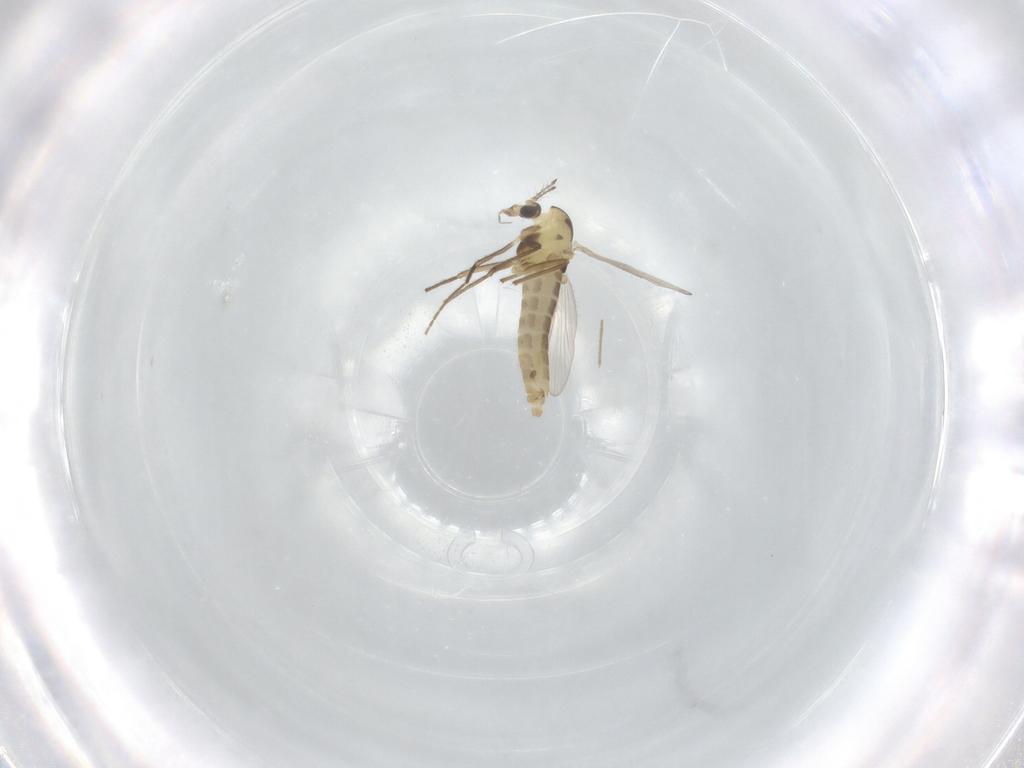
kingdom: Animalia
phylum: Arthropoda
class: Insecta
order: Diptera
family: Chironomidae
